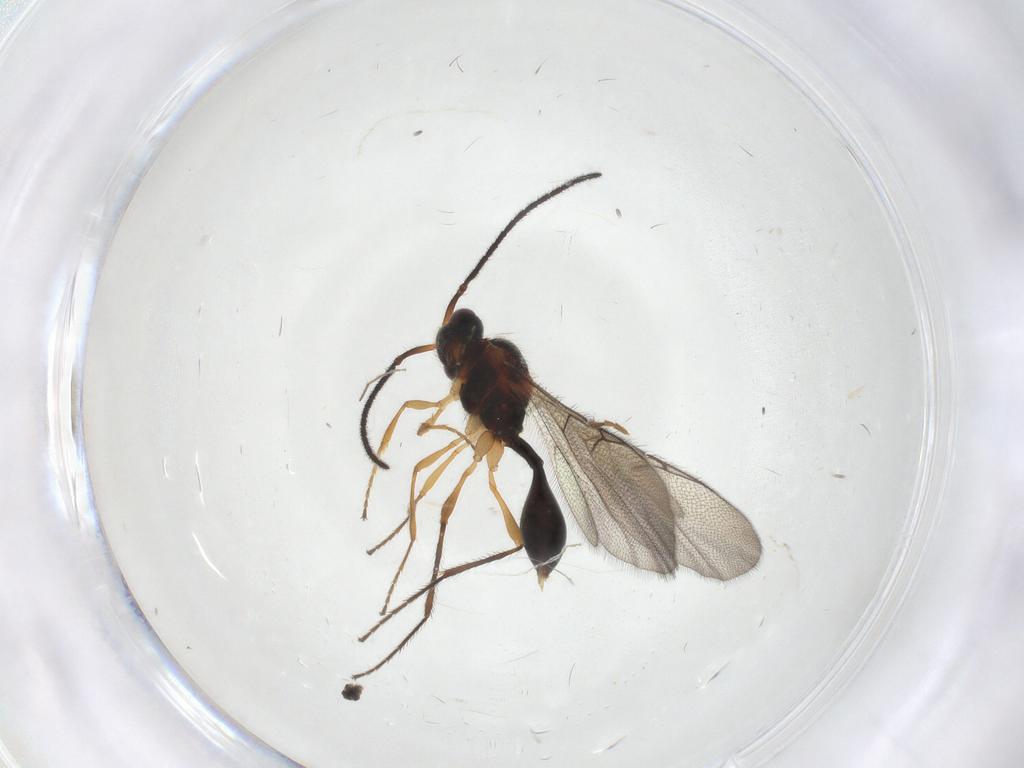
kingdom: Animalia
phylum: Arthropoda
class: Insecta
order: Hymenoptera
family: Ichneumonidae
